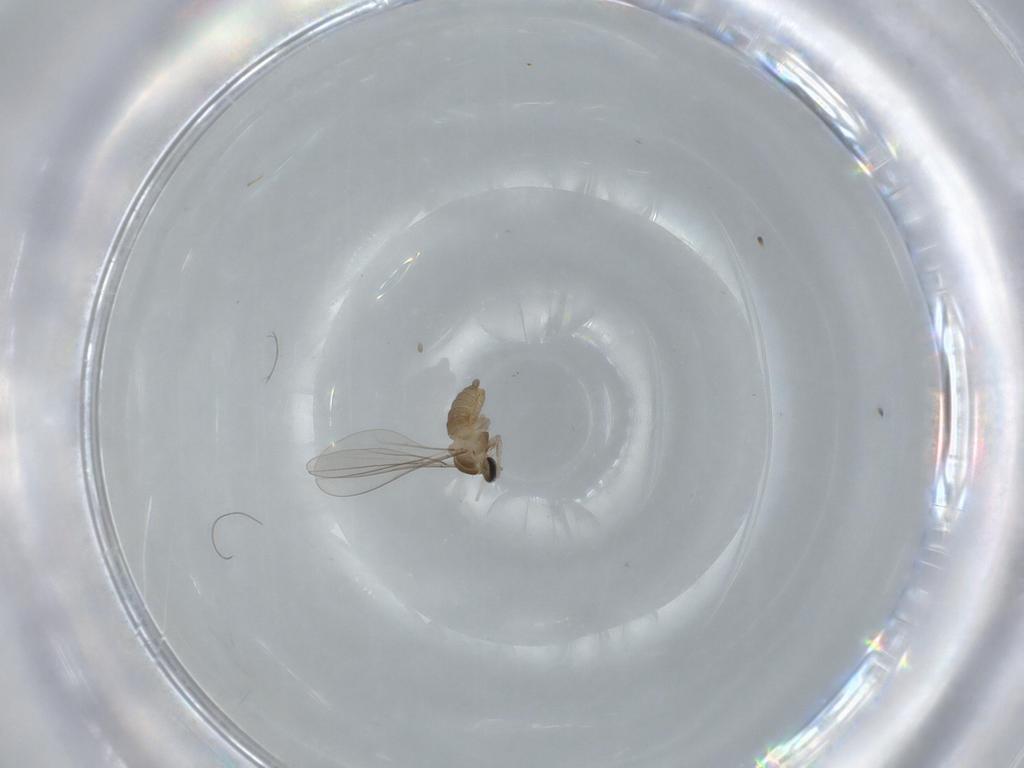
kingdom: Animalia
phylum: Arthropoda
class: Insecta
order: Diptera
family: Cecidomyiidae
